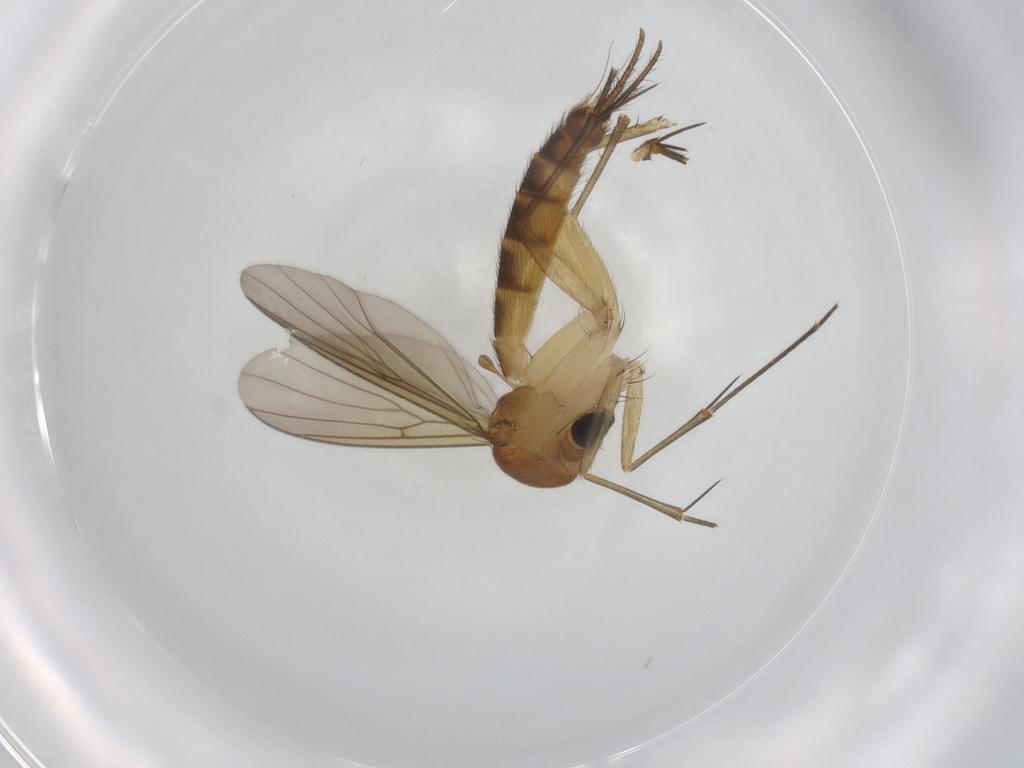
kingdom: Animalia
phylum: Arthropoda
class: Insecta
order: Diptera
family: Mycetophilidae
